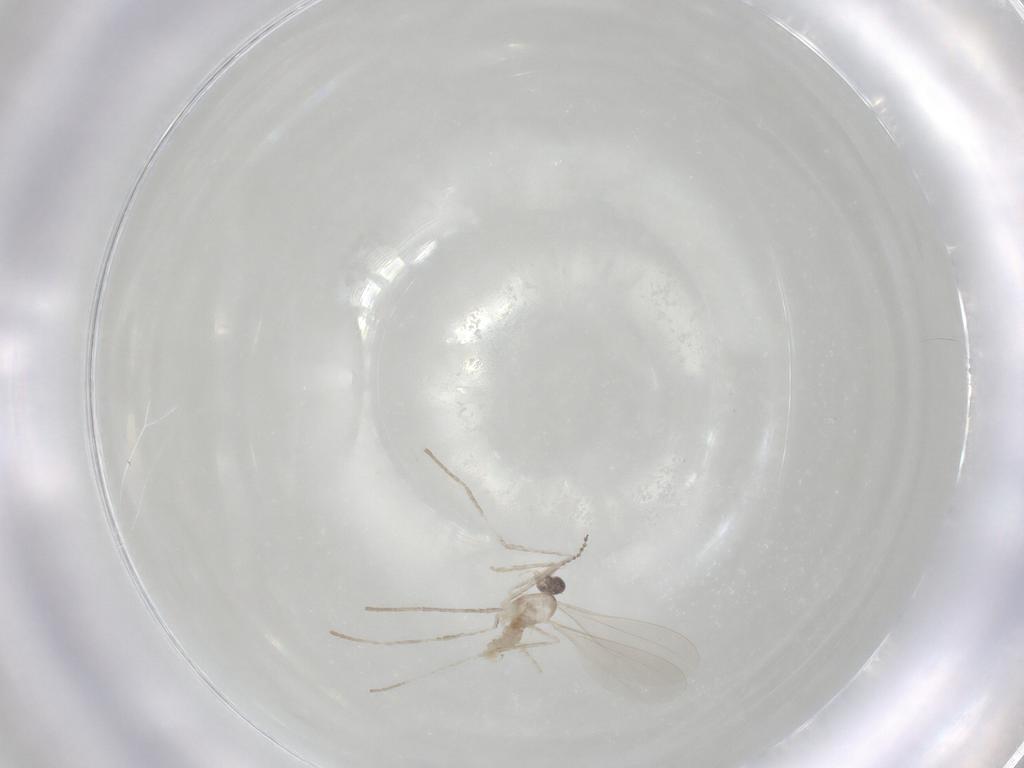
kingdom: Animalia
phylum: Arthropoda
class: Insecta
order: Diptera
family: Cecidomyiidae
